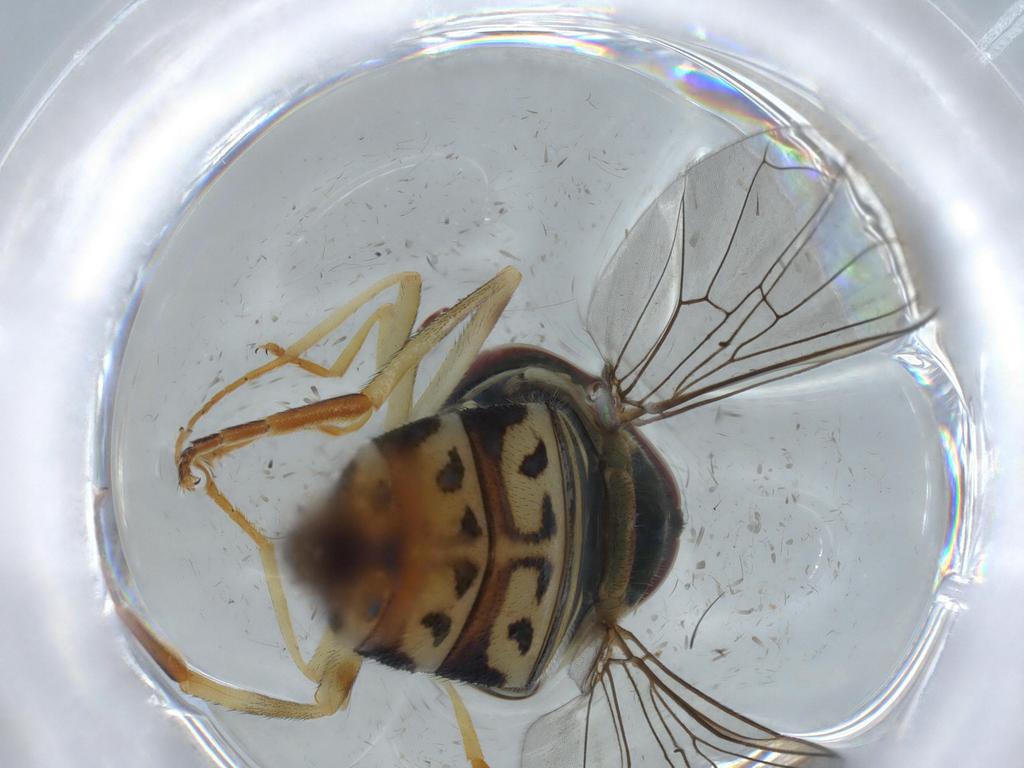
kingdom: Animalia
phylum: Arthropoda
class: Insecta
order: Diptera
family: Syrphidae
